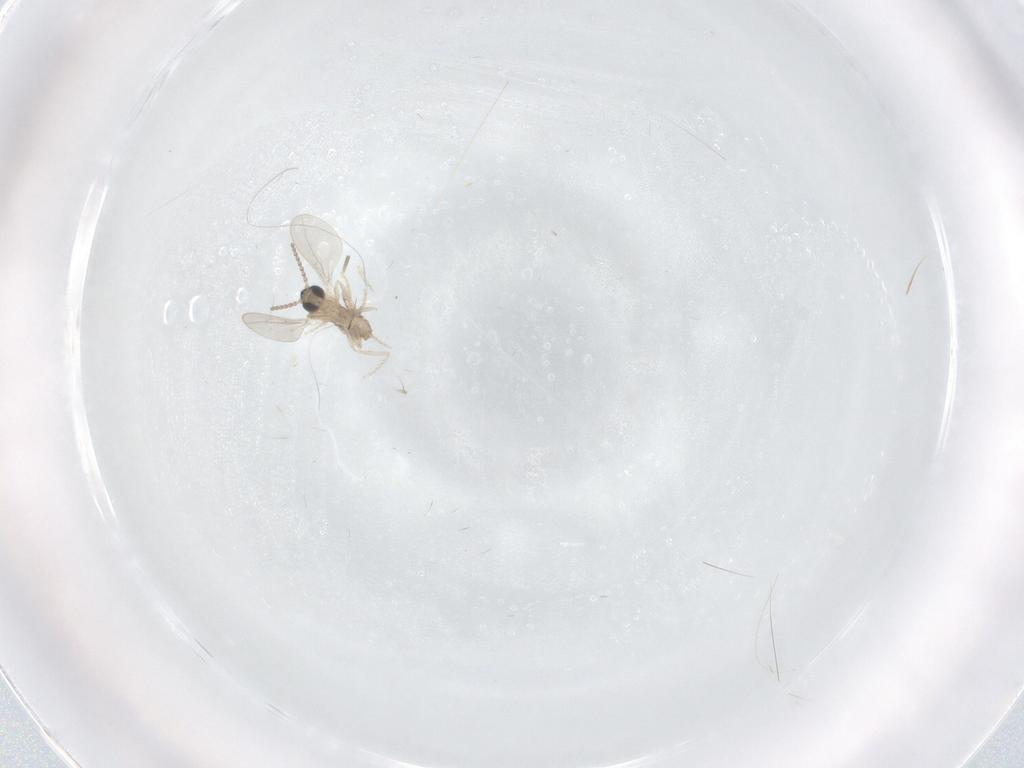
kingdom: Animalia
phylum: Arthropoda
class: Insecta
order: Diptera
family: Cecidomyiidae
